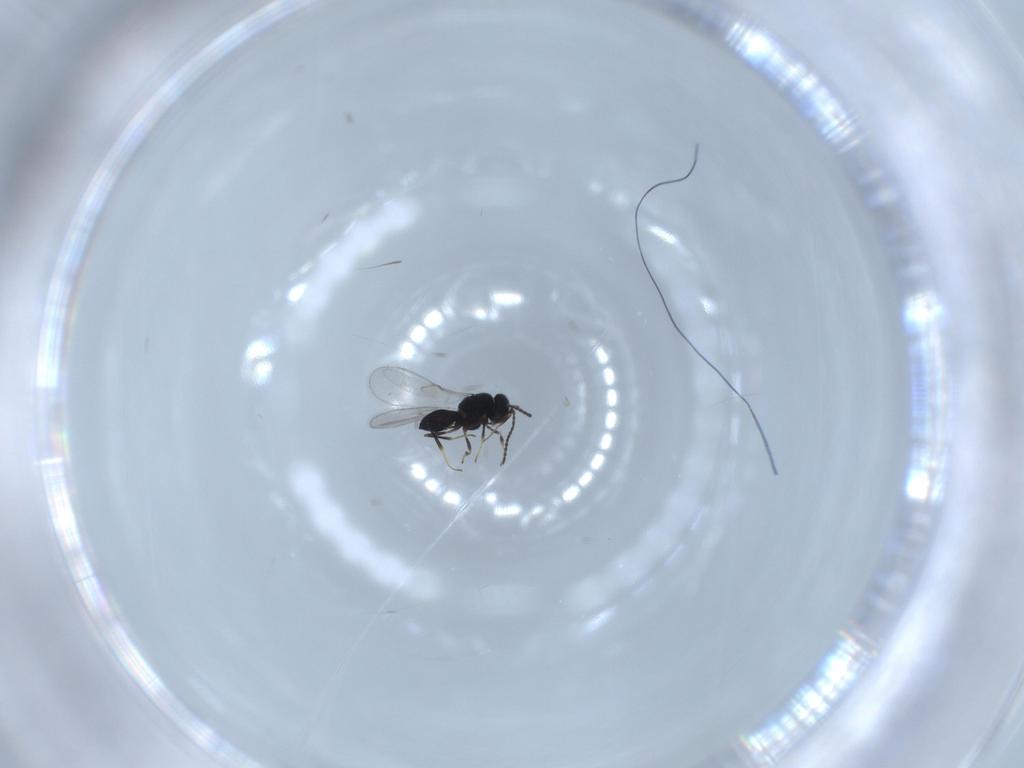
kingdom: Animalia
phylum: Arthropoda
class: Insecta
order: Hymenoptera
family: Scelionidae
